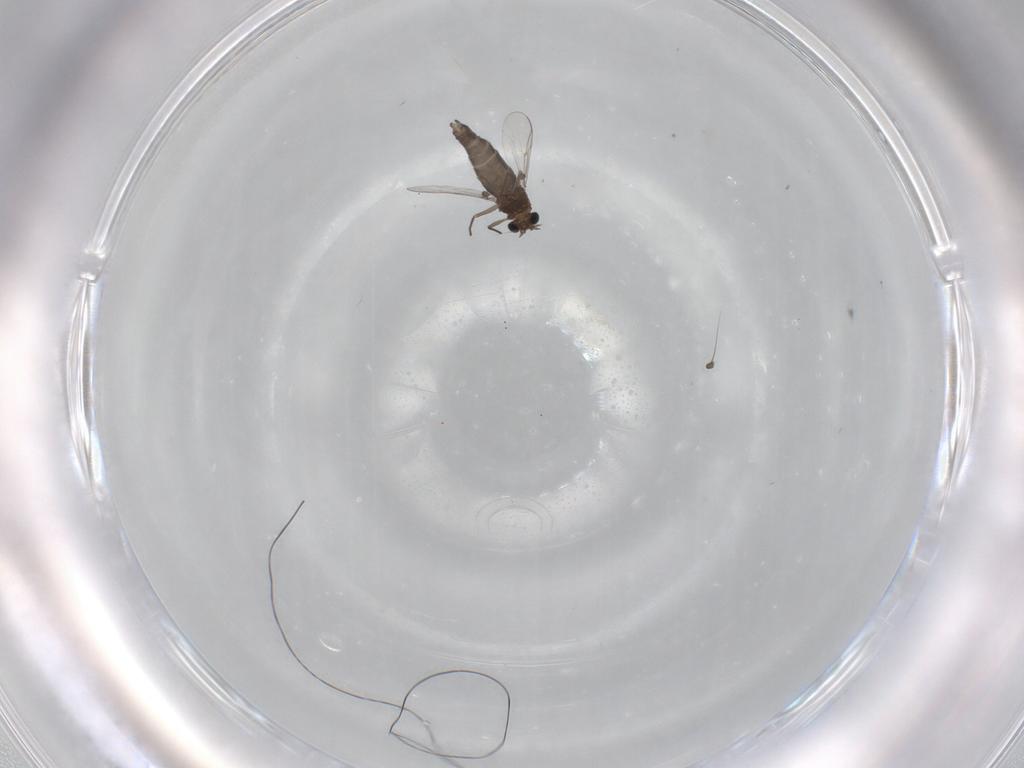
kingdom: Animalia
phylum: Arthropoda
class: Insecta
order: Diptera
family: Chironomidae
